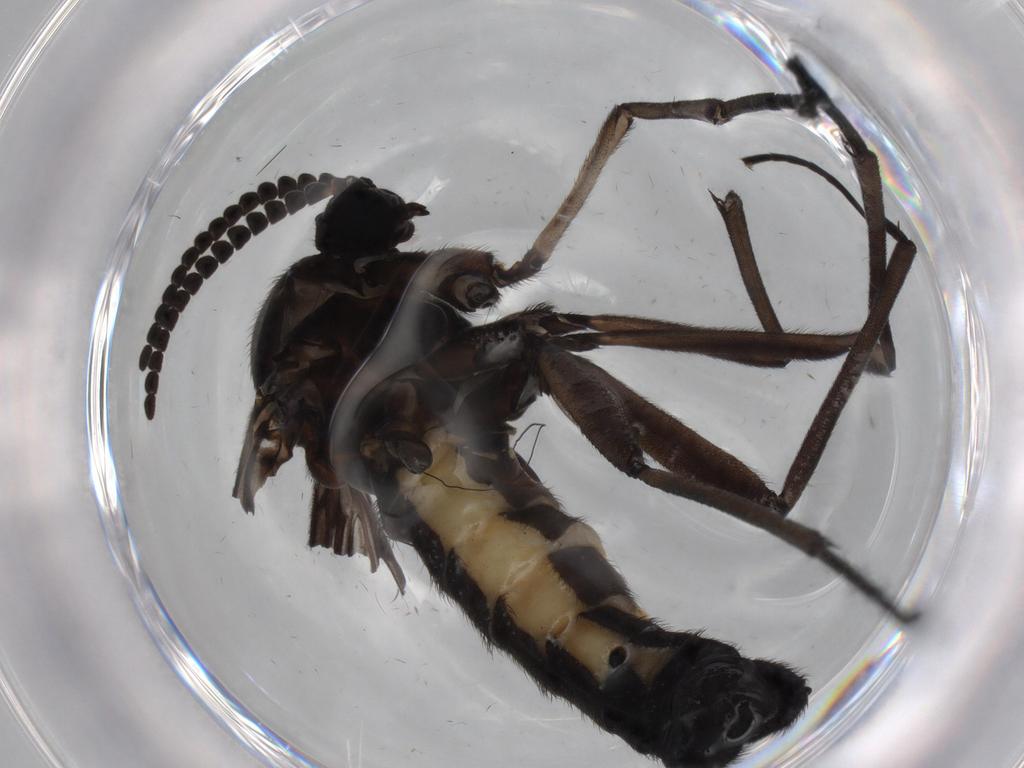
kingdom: Animalia
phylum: Arthropoda
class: Insecta
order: Diptera
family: Sciaridae
